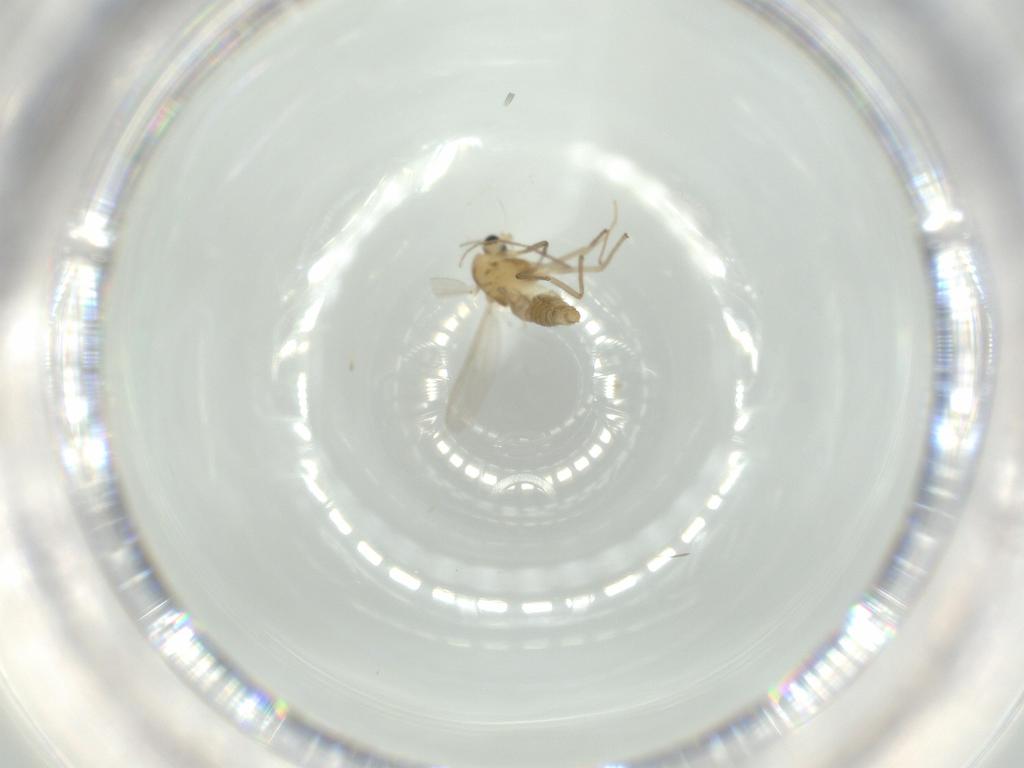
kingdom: Animalia
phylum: Arthropoda
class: Insecta
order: Diptera
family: Chironomidae
